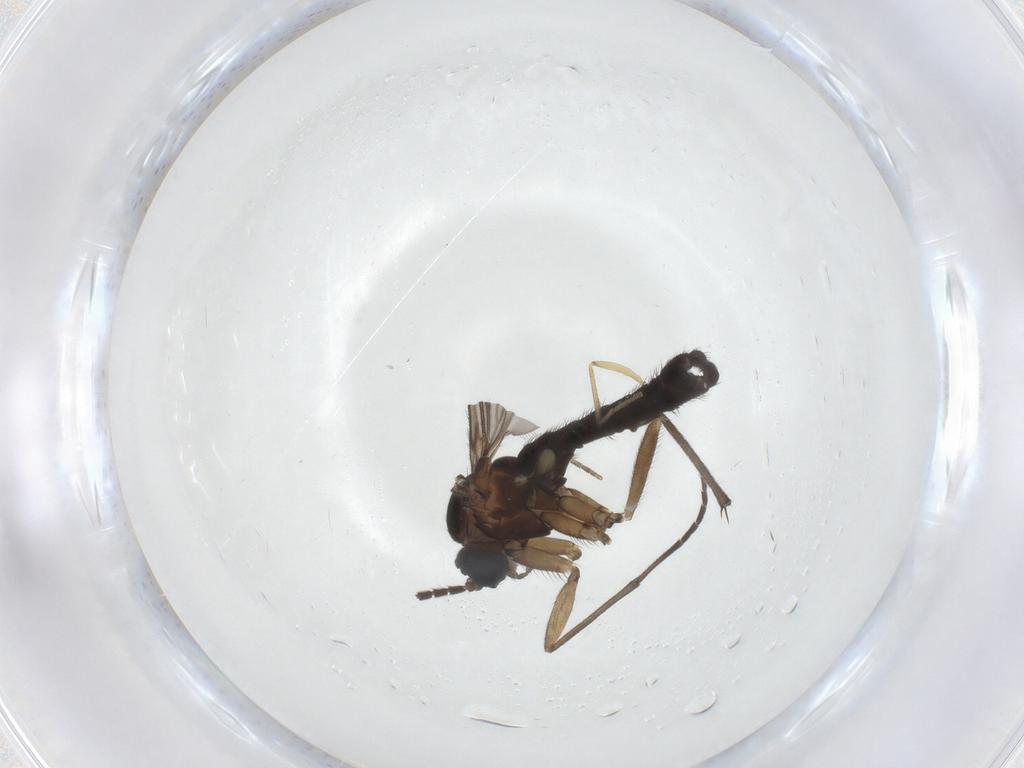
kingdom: Animalia
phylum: Arthropoda
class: Insecta
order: Diptera
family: Sciaridae
